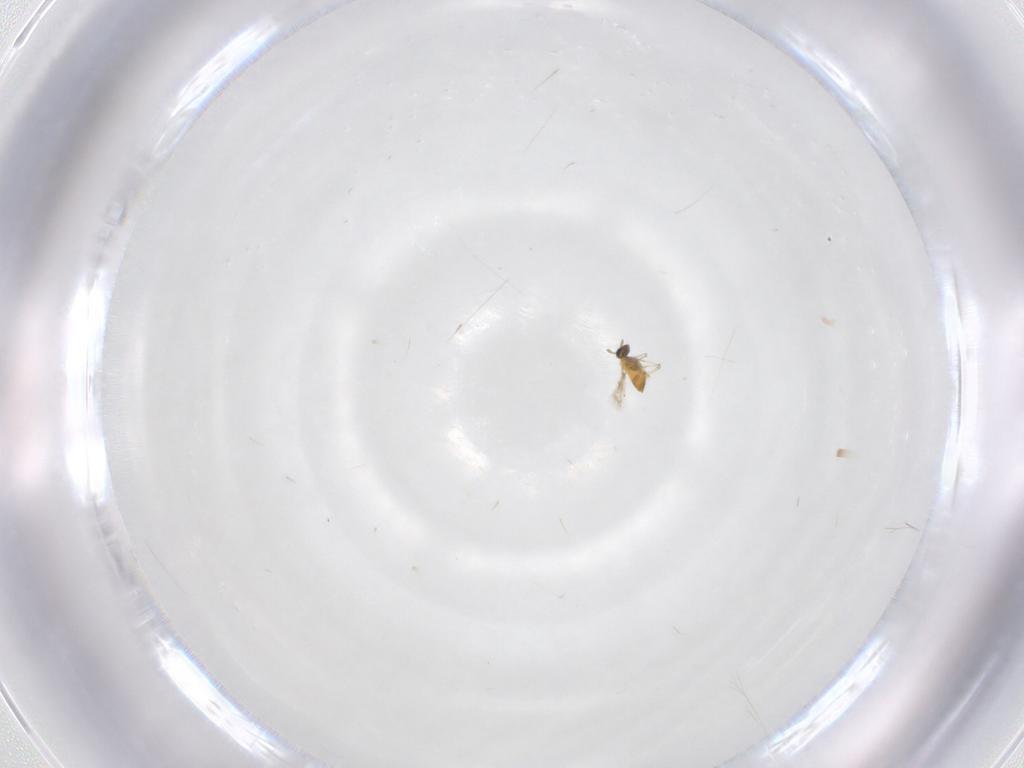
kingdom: Animalia
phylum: Arthropoda
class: Insecta
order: Hymenoptera
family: Trichogrammatidae
